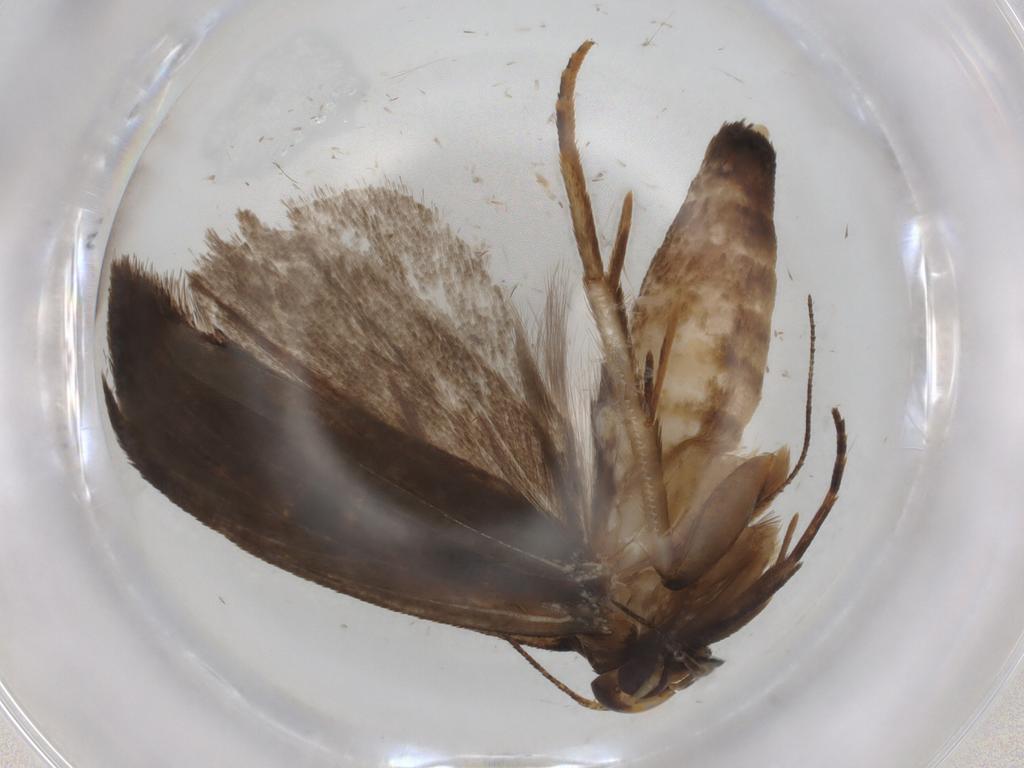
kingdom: Animalia
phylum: Arthropoda
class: Insecta
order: Lepidoptera
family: Gelechiidae
